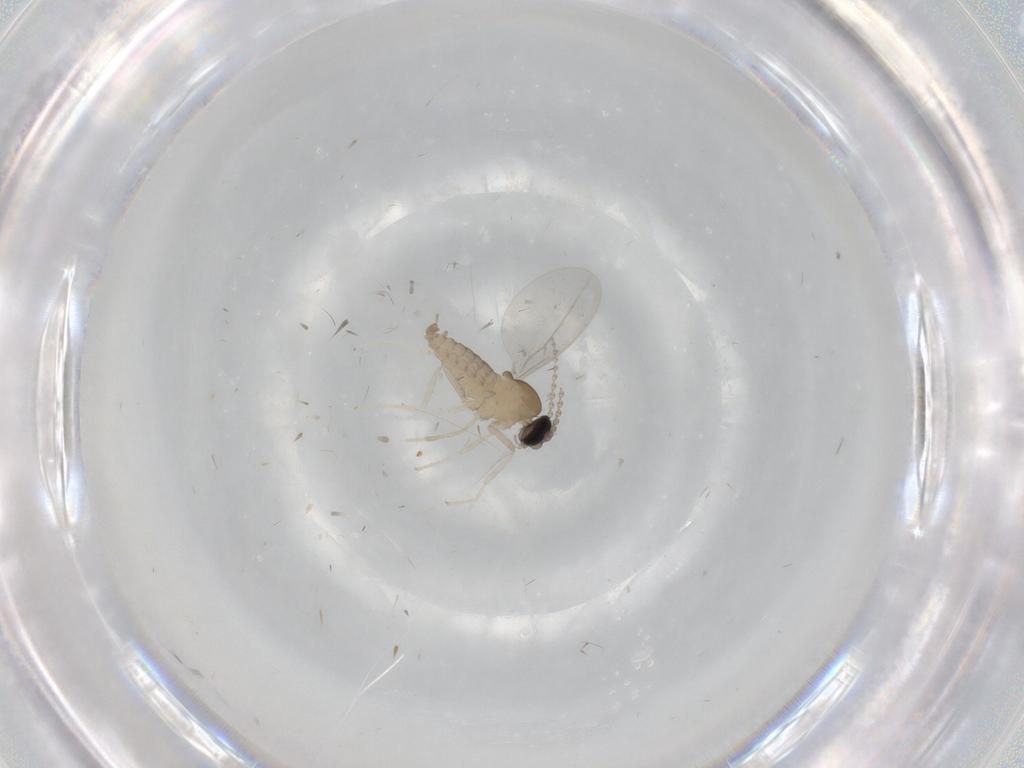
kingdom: Animalia
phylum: Arthropoda
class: Insecta
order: Diptera
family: Cecidomyiidae
